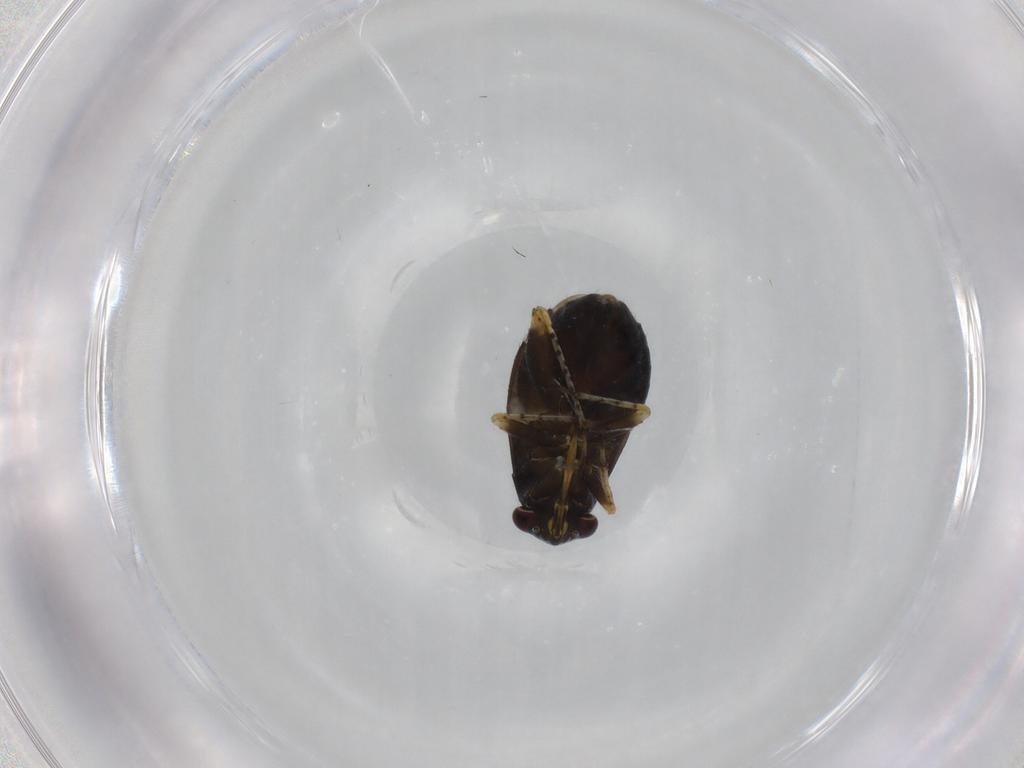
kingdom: Animalia
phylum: Arthropoda
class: Insecta
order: Hemiptera
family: Miridae
